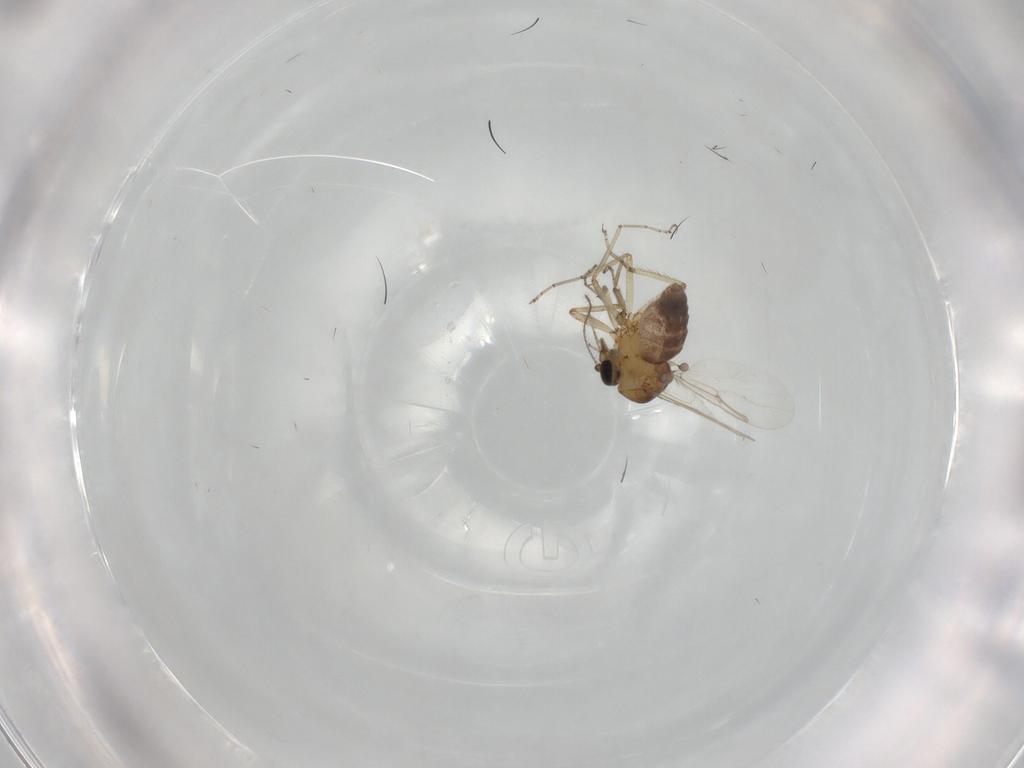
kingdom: Animalia
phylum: Arthropoda
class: Insecta
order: Diptera
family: Ceratopogonidae
